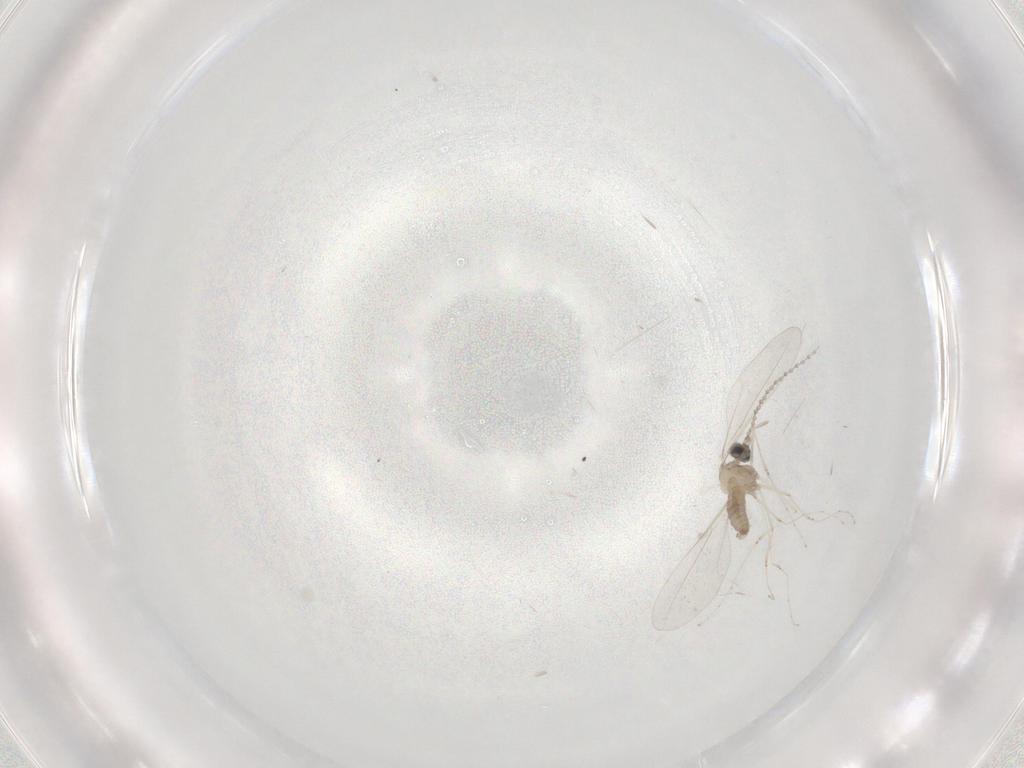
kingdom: Animalia
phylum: Arthropoda
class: Insecta
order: Diptera
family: Cecidomyiidae
